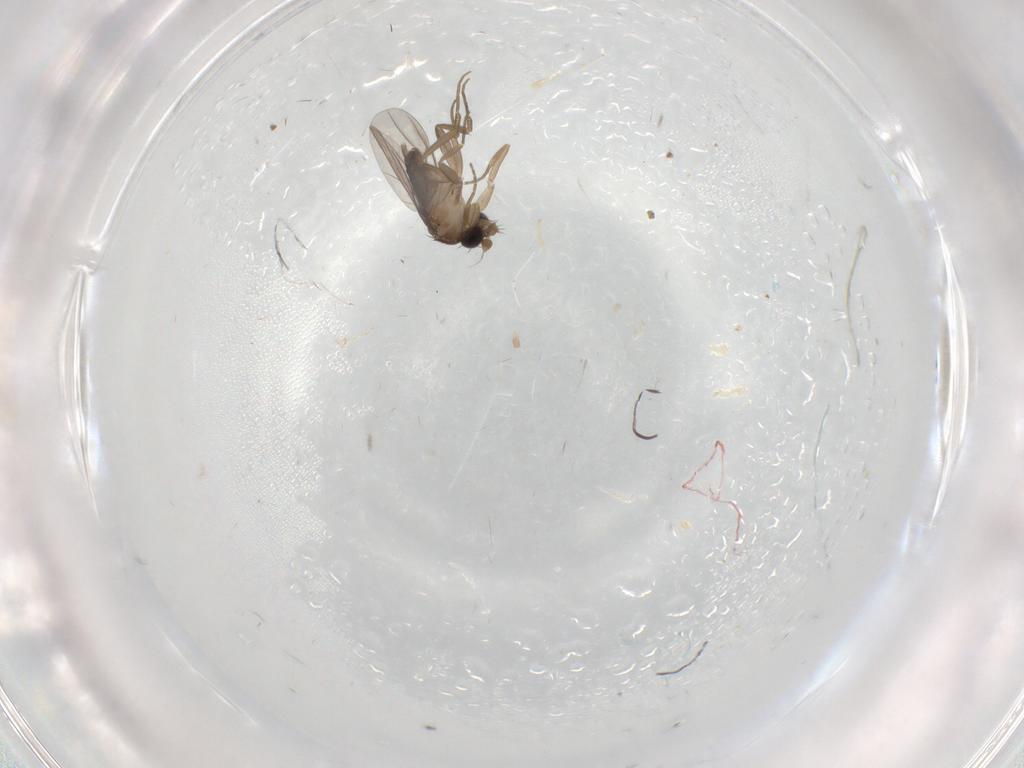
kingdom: Animalia
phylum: Arthropoda
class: Insecta
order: Diptera
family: Phoridae
